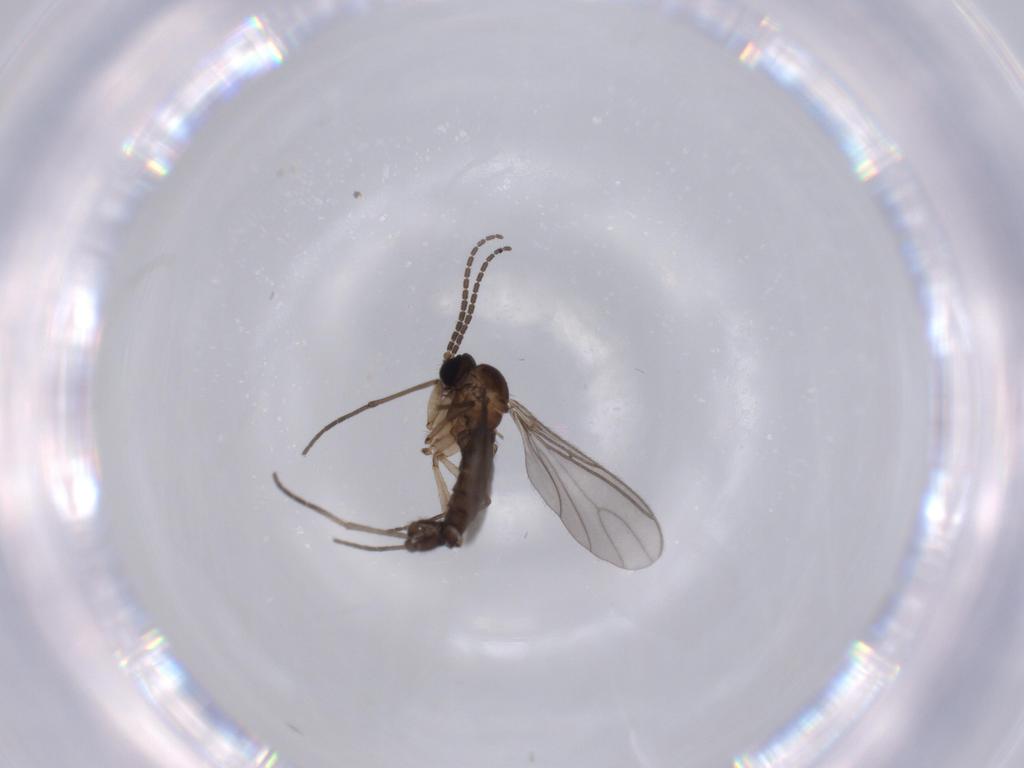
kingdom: Animalia
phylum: Arthropoda
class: Insecta
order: Diptera
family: Sciaridae
